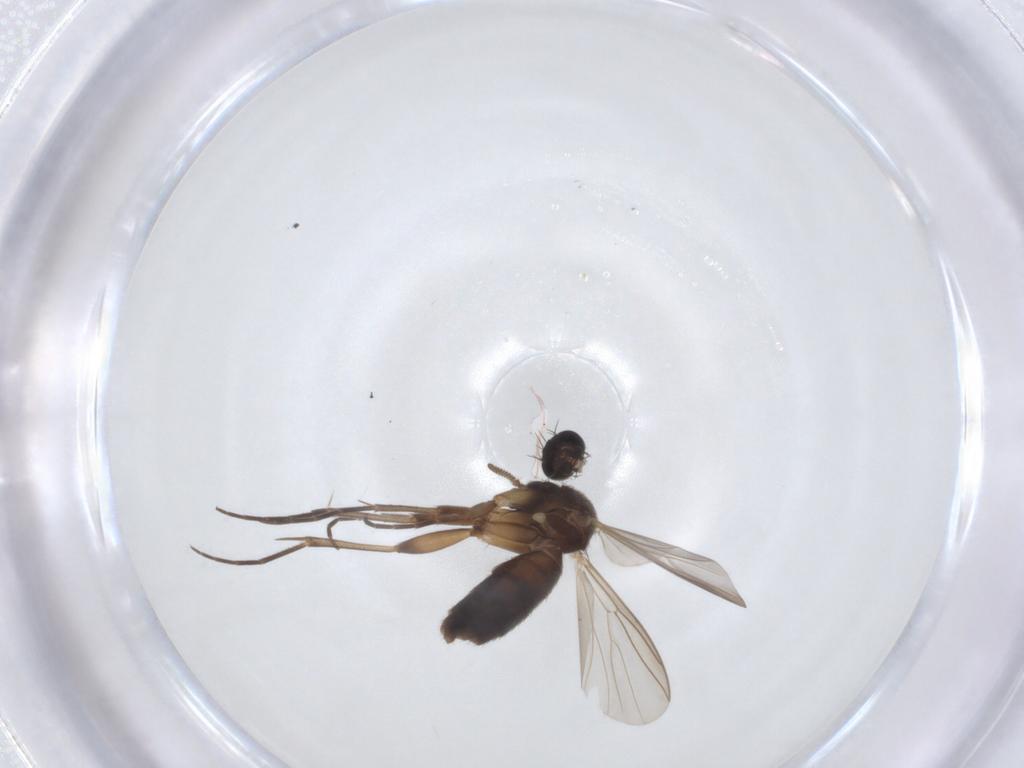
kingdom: Animalia
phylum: Arthropoda
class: Insecta
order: Diptera
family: Mycetophilidae
